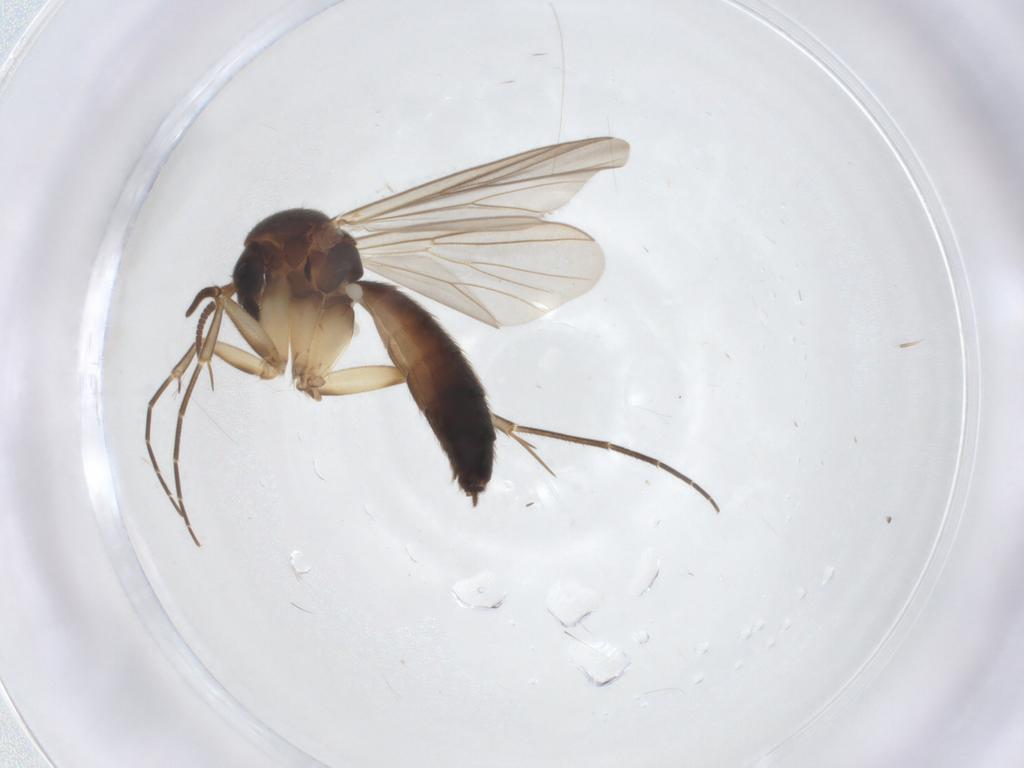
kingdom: Animalia
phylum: Arthropoda
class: Insecta
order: Diptera
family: Mycetophilidae
